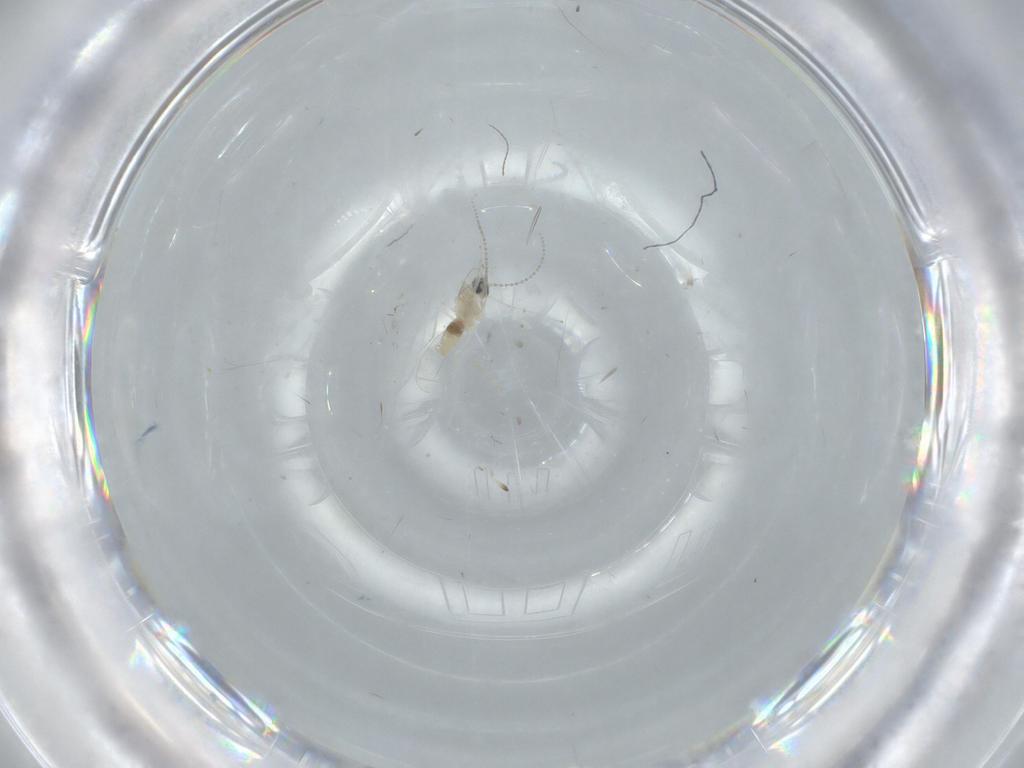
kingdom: Animalia
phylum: Arthropoda
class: Insecta
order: Diptera
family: Cecidomyiidae
